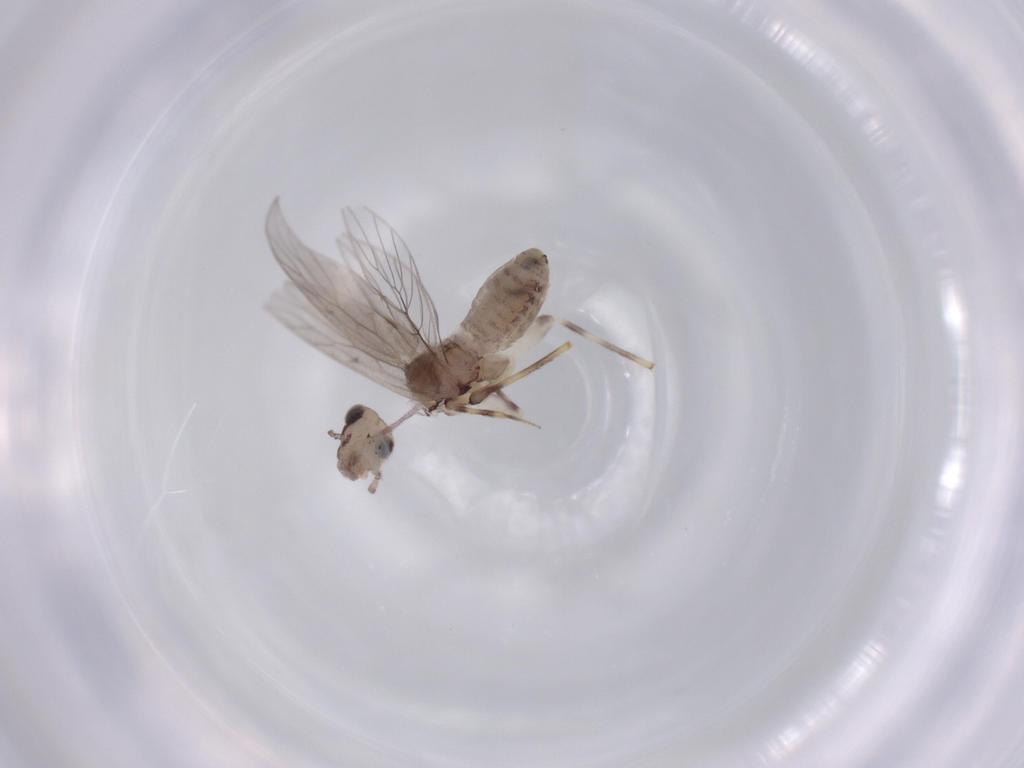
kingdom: Animalia
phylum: Arthropoda
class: Insecta
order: Psocodea
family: Lepidopsocidae
